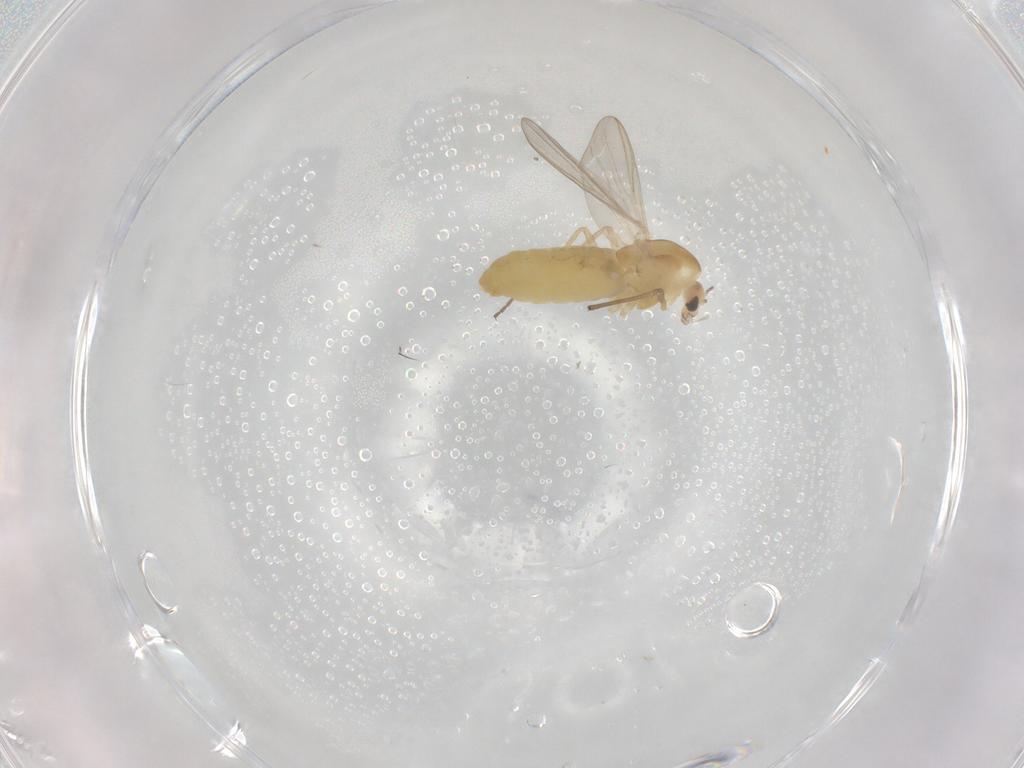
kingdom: Animalia
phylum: Arthropoda
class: Insecta
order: Diptera
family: Chironomidae
